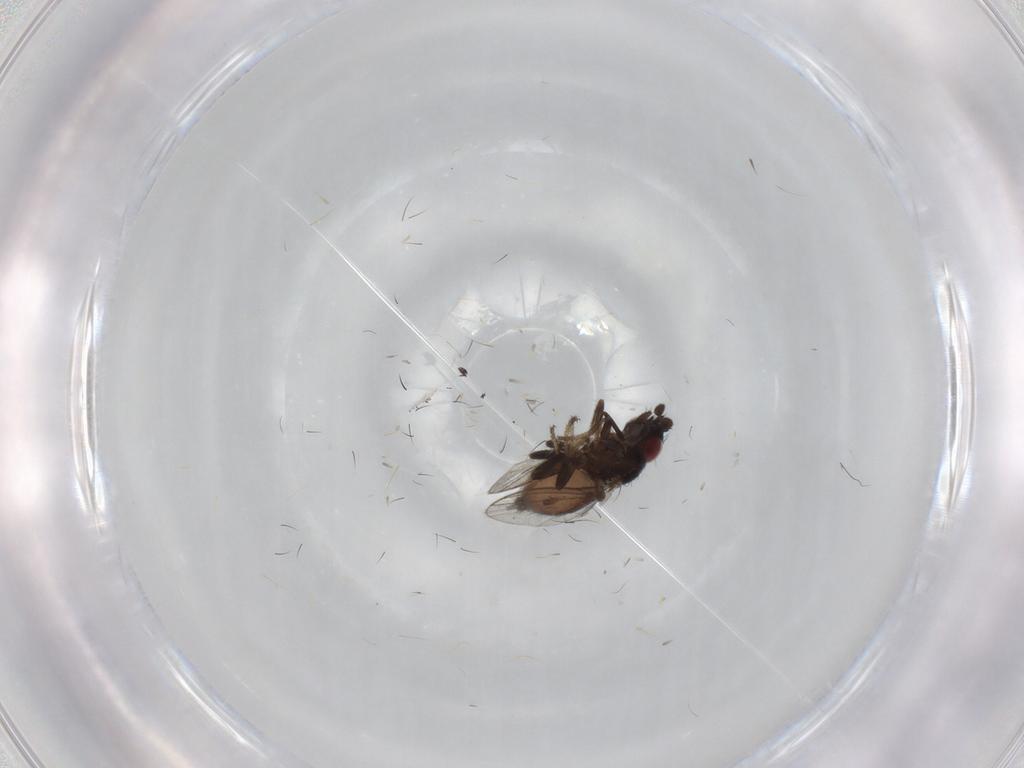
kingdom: Animalia
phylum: Arthropoda
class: Insecta
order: Diptera
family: Milichiidae
